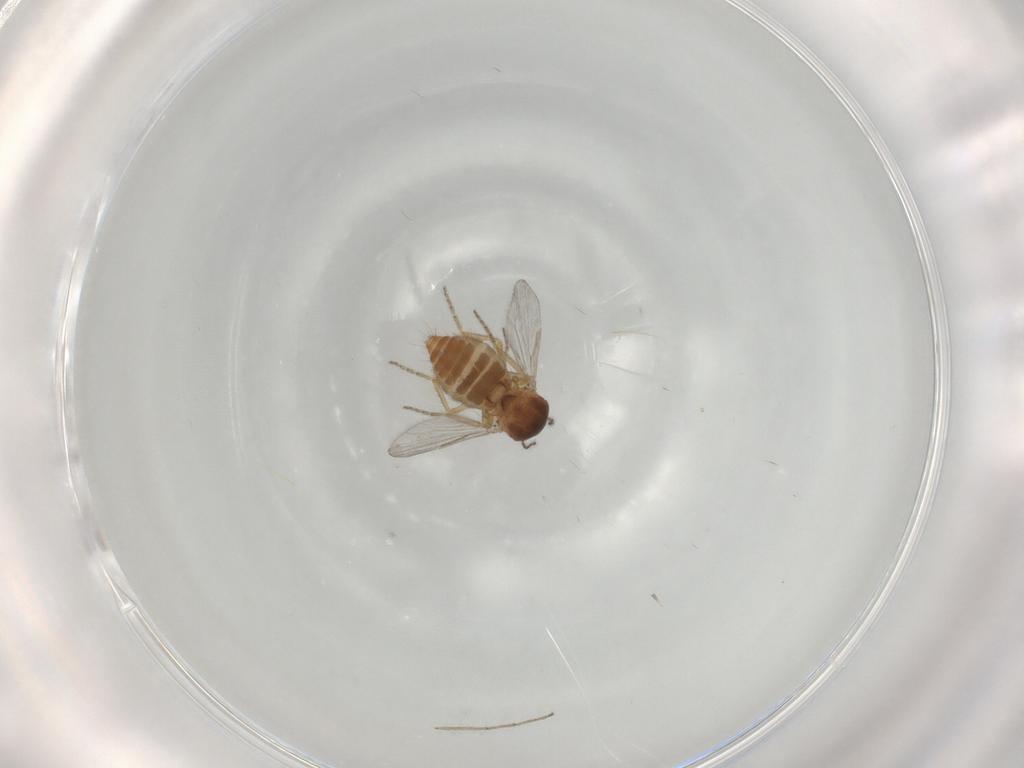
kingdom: Animalia
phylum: Arthropoda
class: Insecta
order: Diptera
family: Ceratopogonidae
